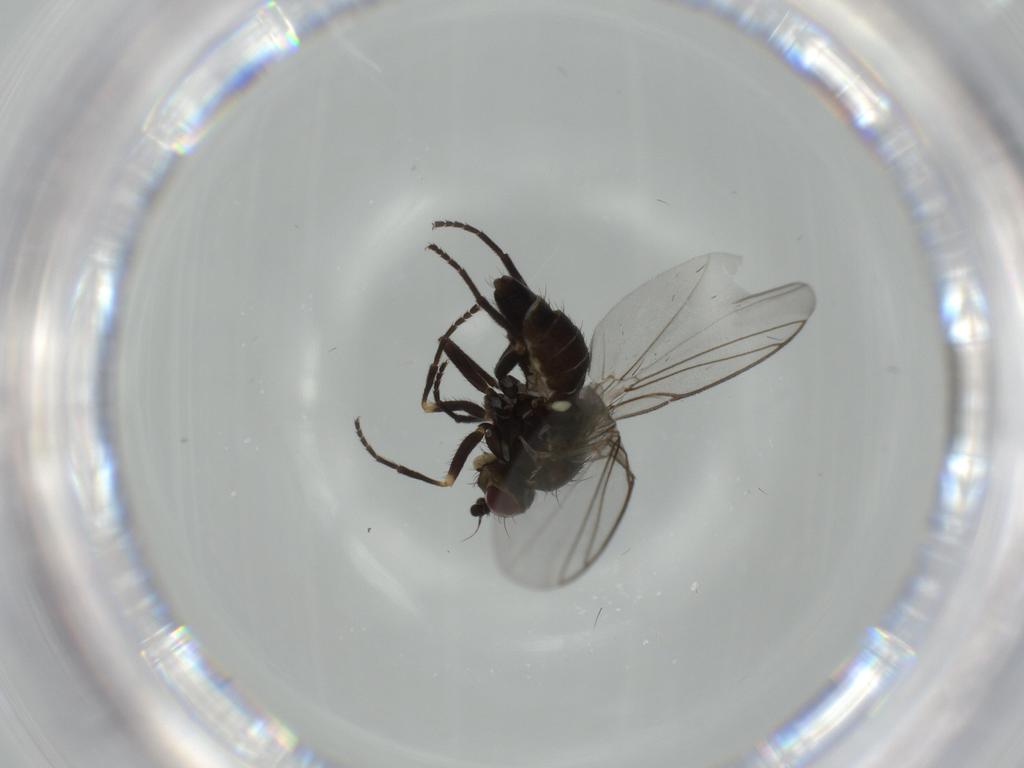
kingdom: Animalia
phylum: Arthropoda
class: Insecta
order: Diptera
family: Agromyzidae
